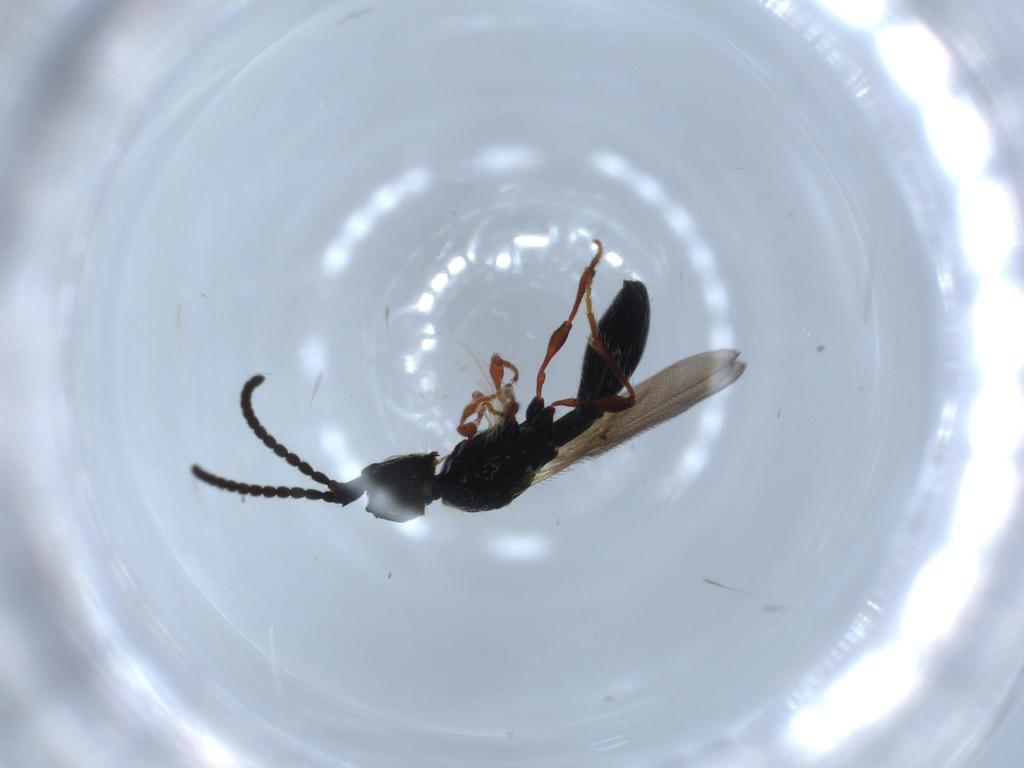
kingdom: Animalia
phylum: Arthropoda
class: Insecta
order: Hymenoptera
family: Diapriidae
